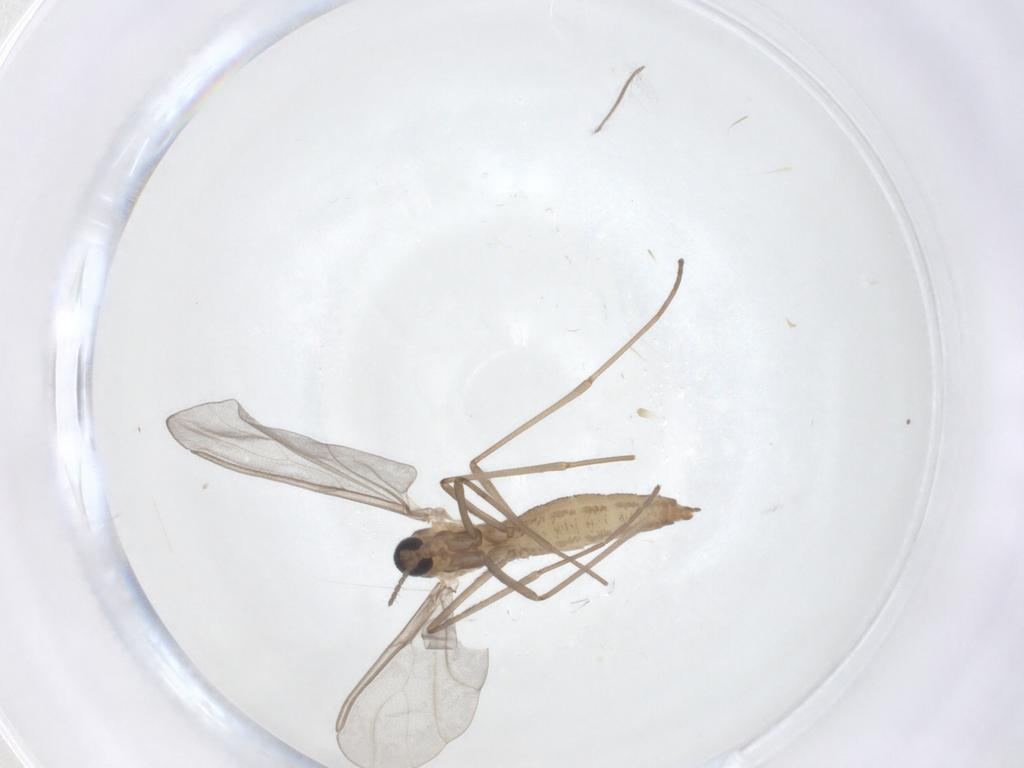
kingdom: Animalia
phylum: Arthropoda
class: Insecta
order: Diptera
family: Cecidomyiidae
